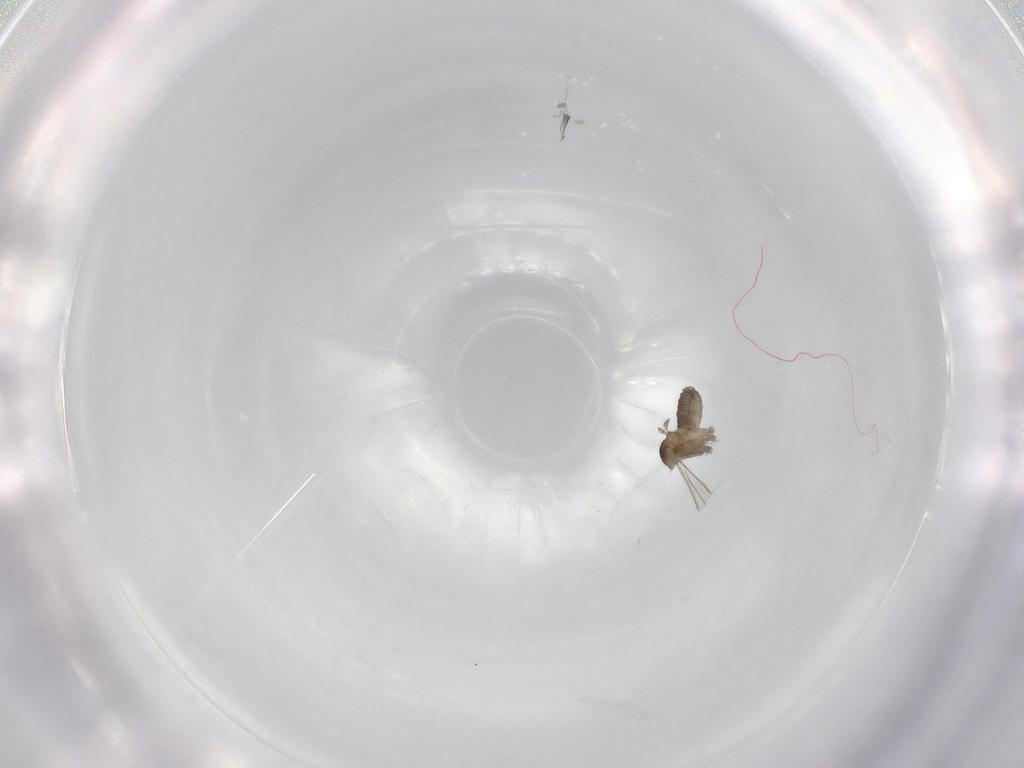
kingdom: Animalia
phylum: Arthropoda
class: Insecta
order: Diptera
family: Cecidomyiidae
